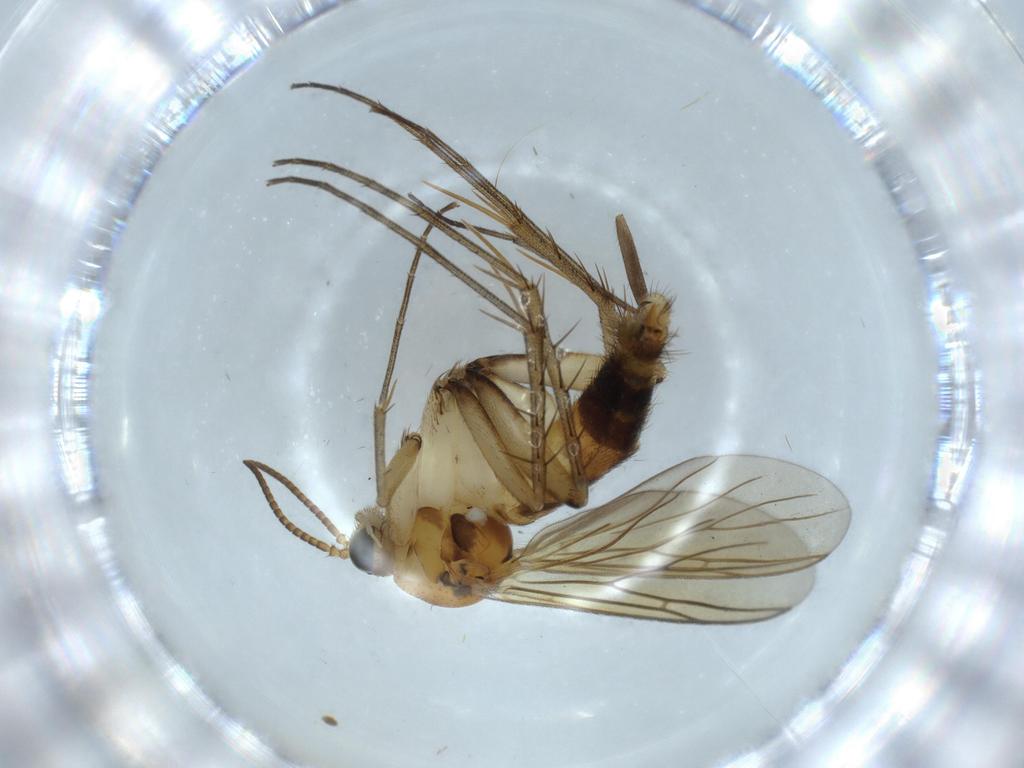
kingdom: Animalia
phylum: Arthropoda
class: Insecta
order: Diptera
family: Mycetophilidae
